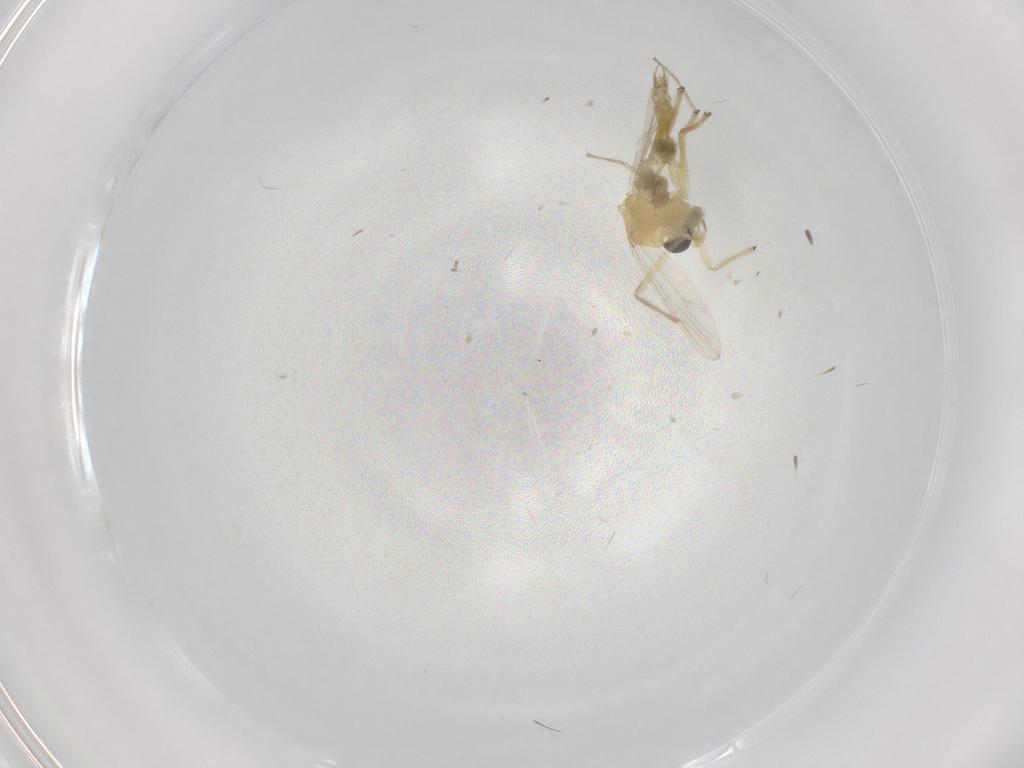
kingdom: Animalia
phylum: Arthropoda
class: Insecta
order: Diptera
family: Chironomidae
